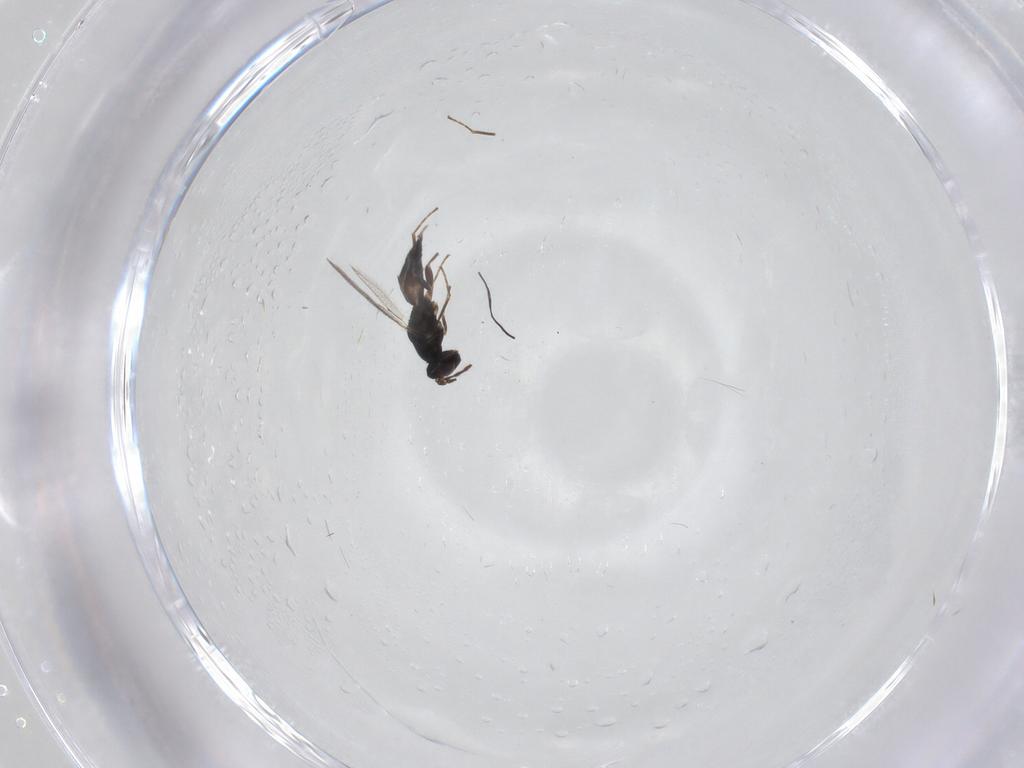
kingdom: Animalia
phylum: Arthropoda
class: Insecta
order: Hymenoptera
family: Eulophidae
